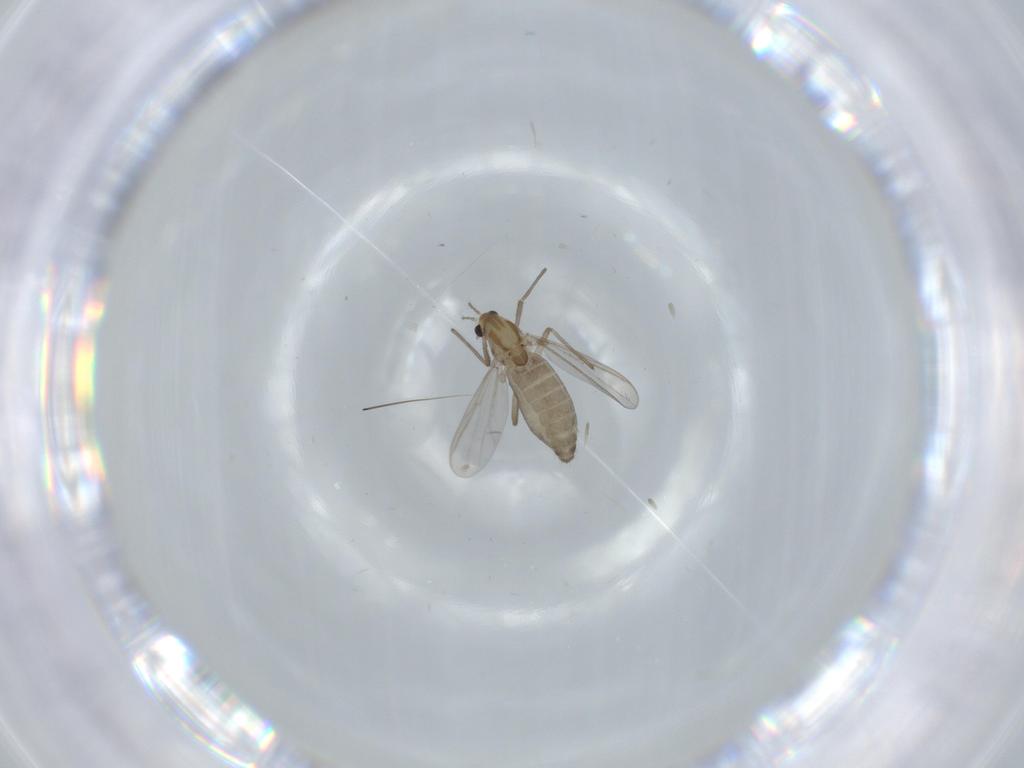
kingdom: Animalia
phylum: Arthropoda
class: Insecta
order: Diptera
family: Chironomidae
